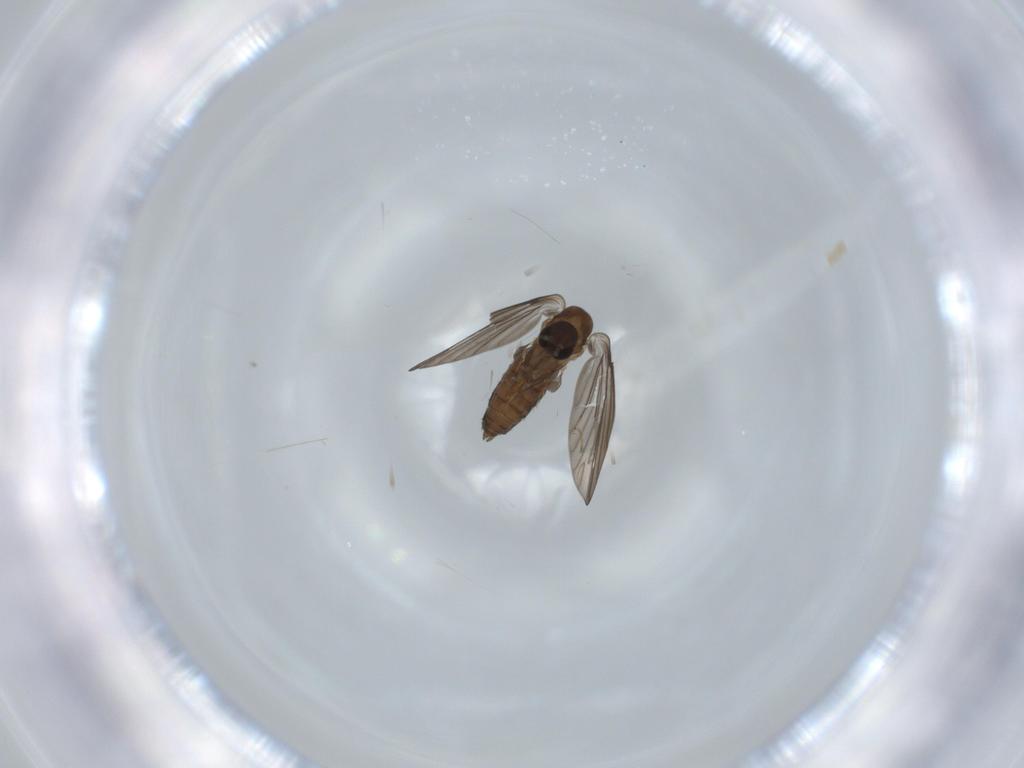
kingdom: Animalia
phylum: Arthropoda
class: Insecta
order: Diptera
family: Psychodidae
